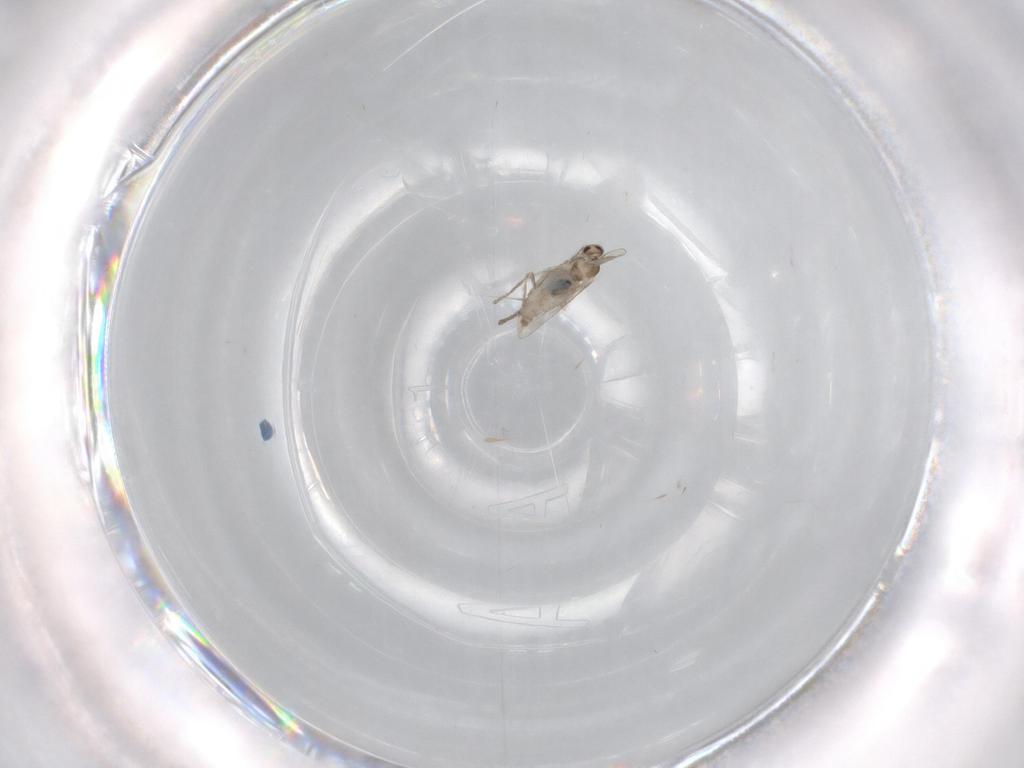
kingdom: Animalia
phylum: Arthropoda
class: Insecta
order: Diptera
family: Cecidomyiidae
